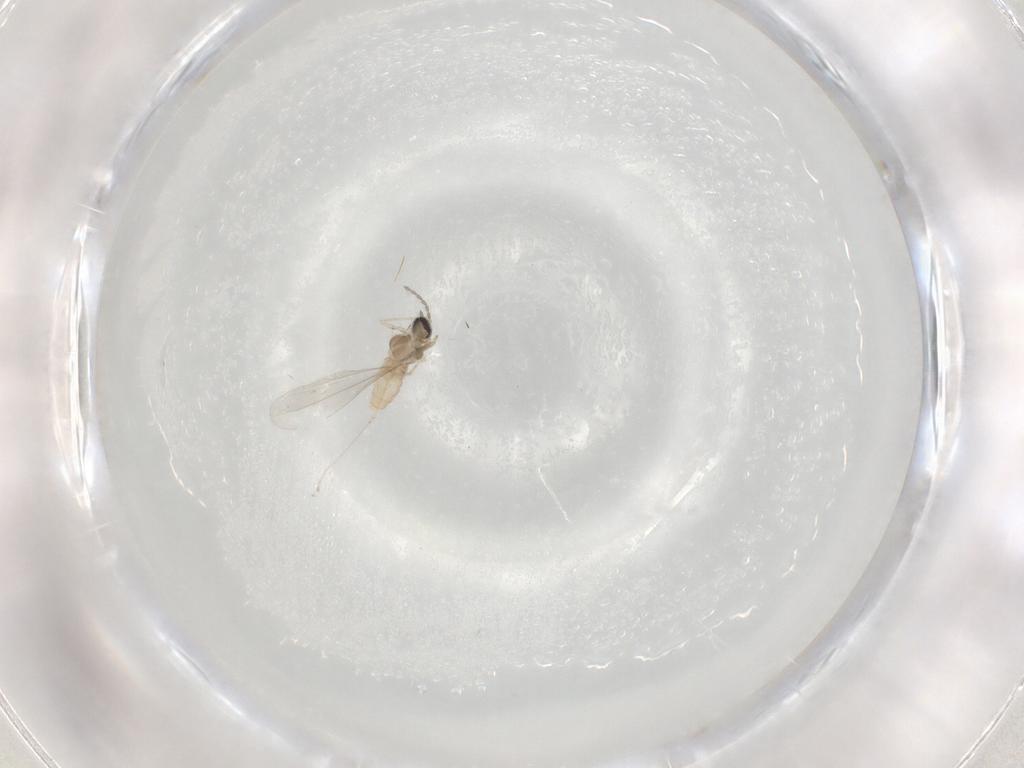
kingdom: Animalia
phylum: Arthropoda
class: Insecta
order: Diptera
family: Cecidomyiidae
